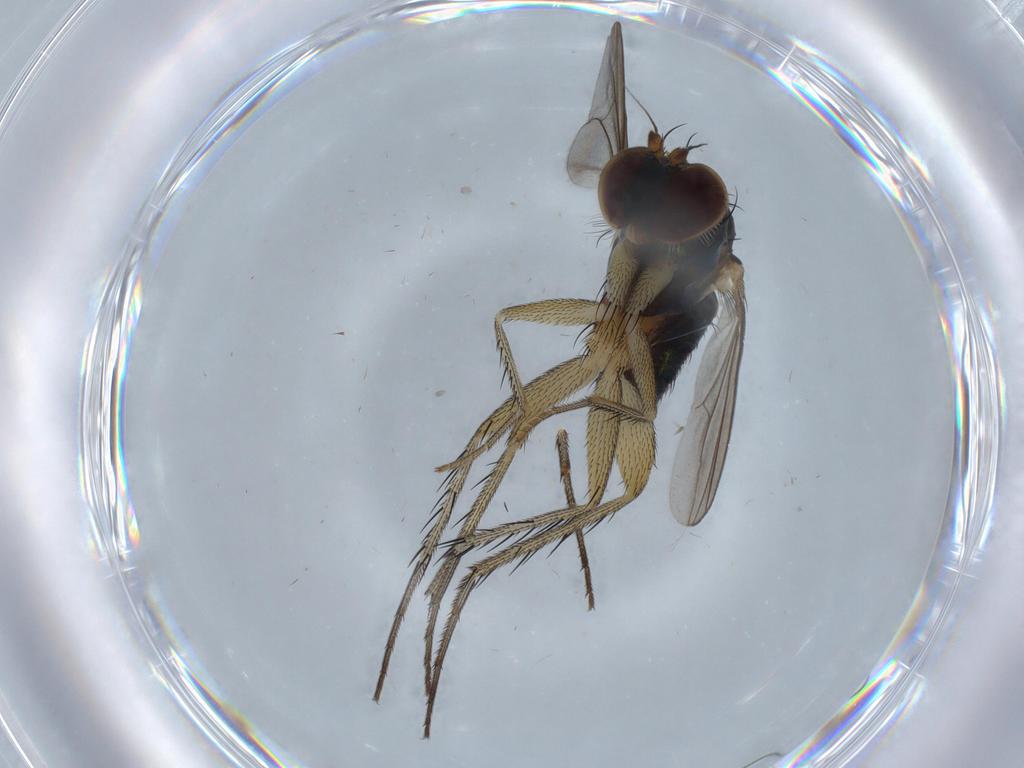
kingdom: Animalia
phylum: Arthropoda
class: Insecta
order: Diptera
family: Dolichopodidae
